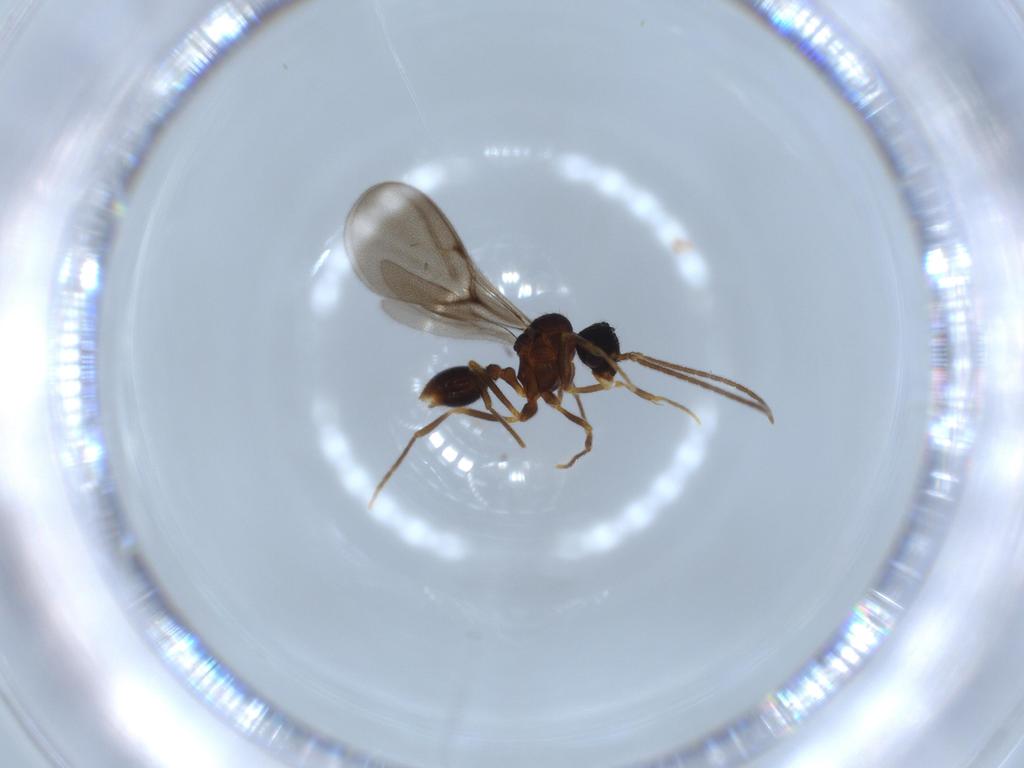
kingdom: Animalia
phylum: Arthropoda
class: Insecta
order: Hymenoptera
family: Formicidae
